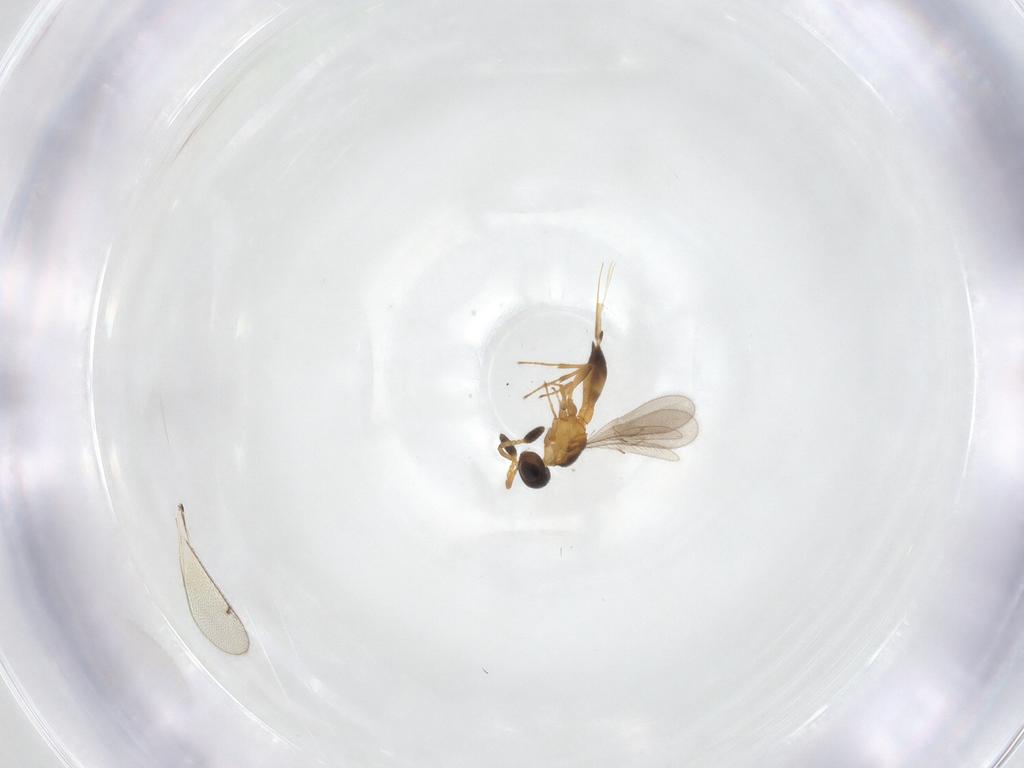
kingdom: Animalia
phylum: Arthropoda
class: Insecta
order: Hymenoptera
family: Scelionidae
